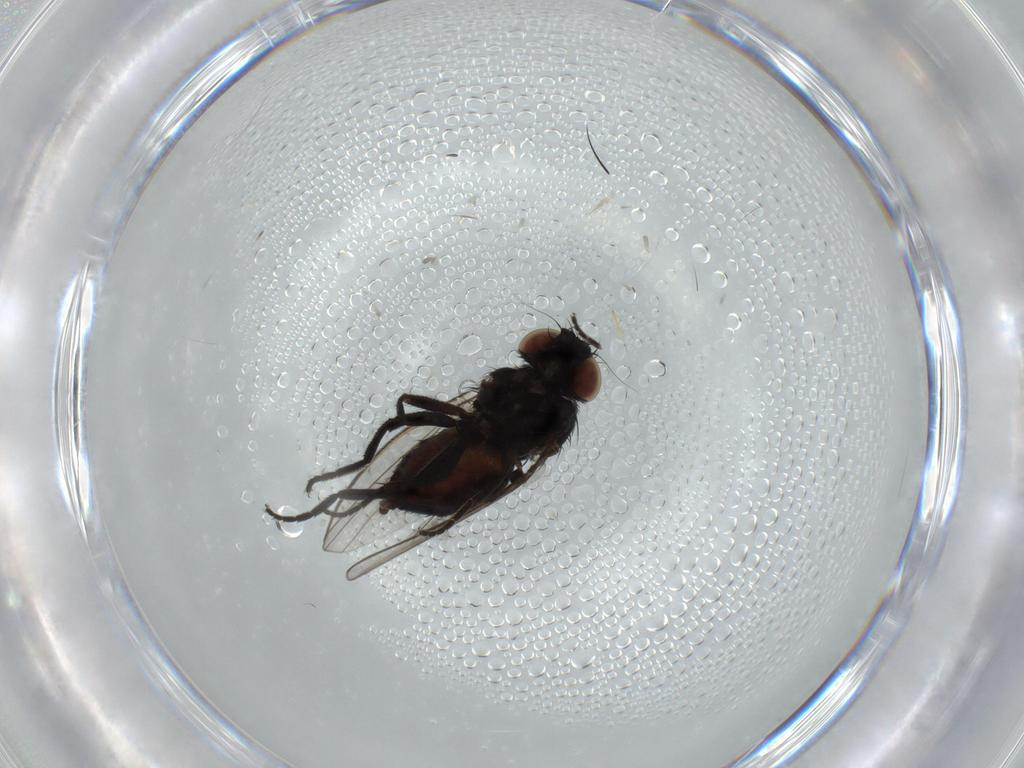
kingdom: Animalia
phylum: Arthropoda
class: Insecta
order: Diptera
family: Milichiidae
